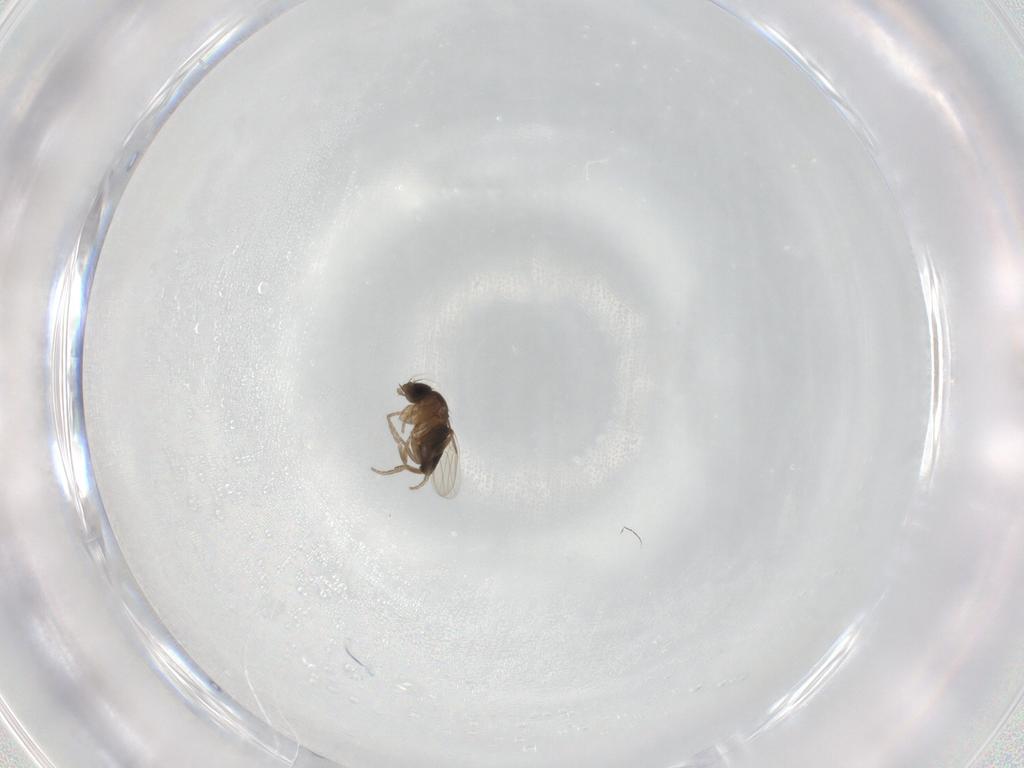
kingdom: Animalia
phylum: Arthropoda
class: Insecta
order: Diptera
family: Phoridae
